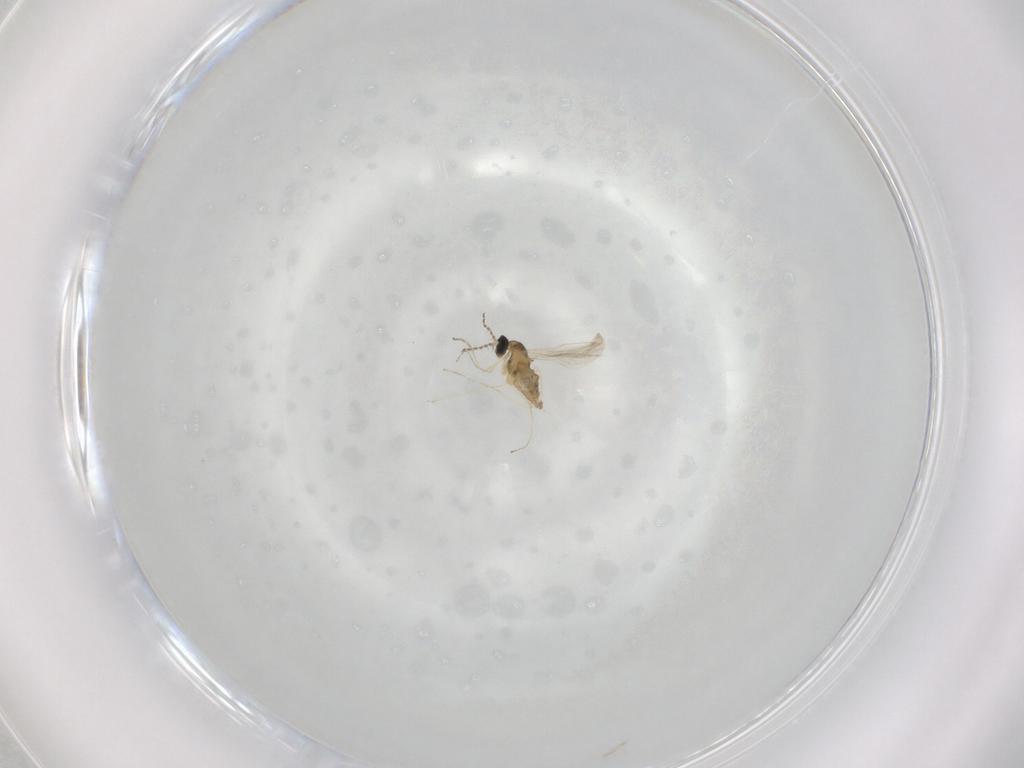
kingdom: Animalia
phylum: Arthropoda
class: Insecta
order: Diptera
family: Cecidomyiidae
